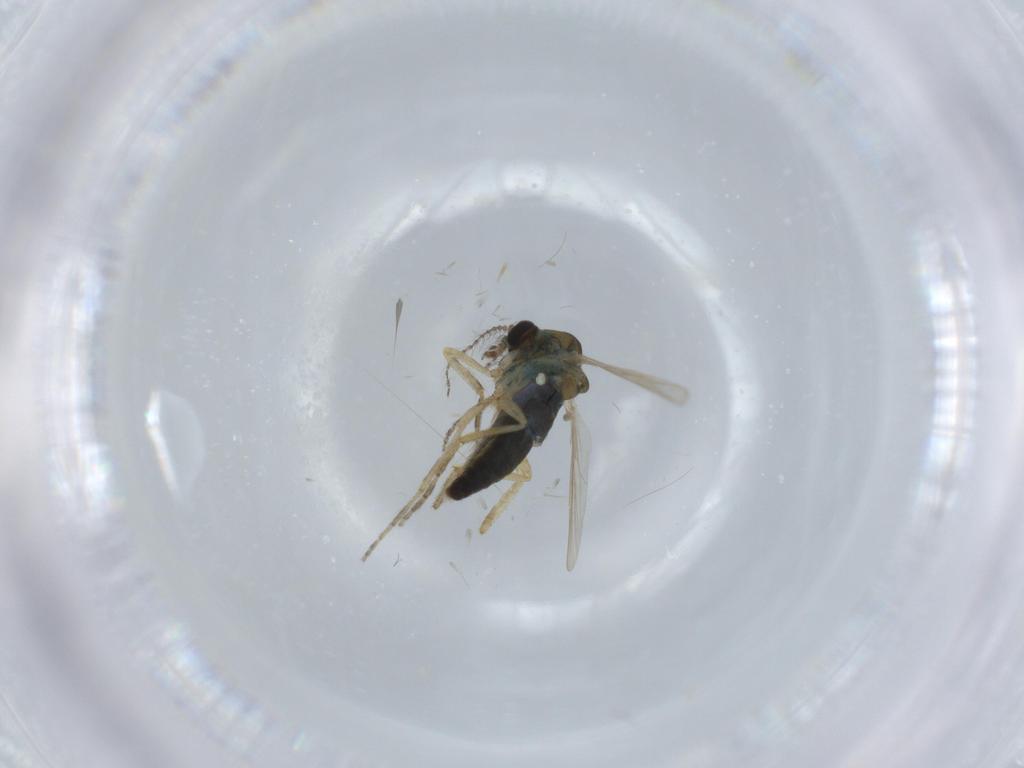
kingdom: Animalia
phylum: Arthropoda
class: Insecta
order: Diptera
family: Ceratopogonidae
